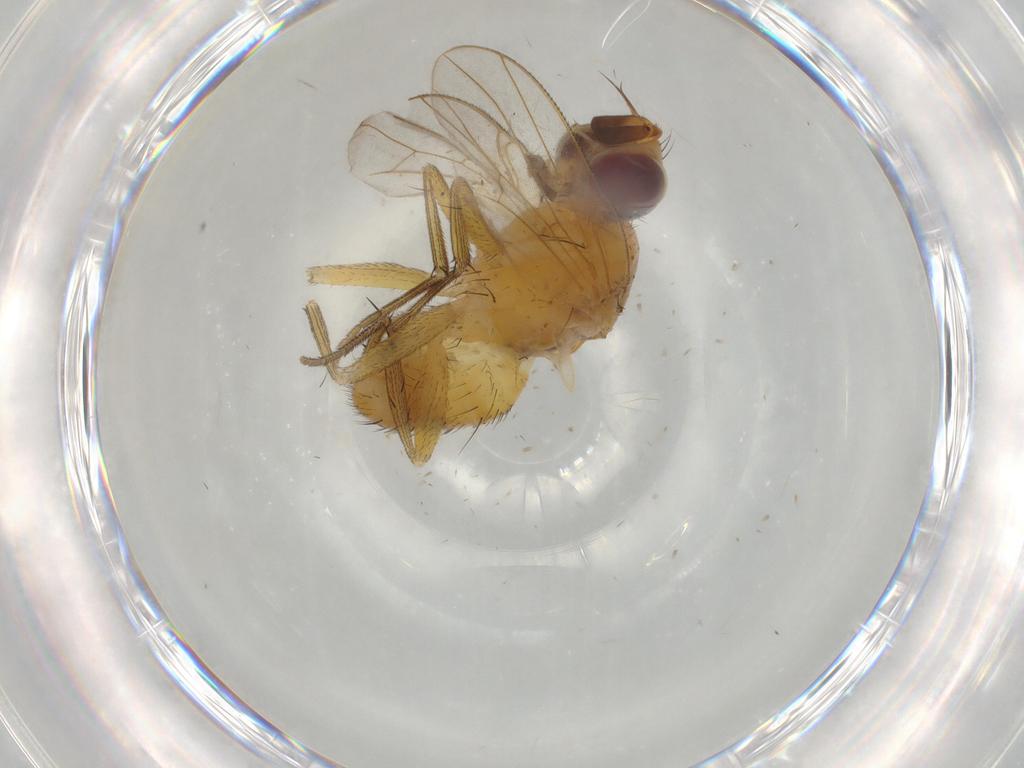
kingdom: Animalia
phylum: Arthropoda
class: Insecta
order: Diptera
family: Muscidae
